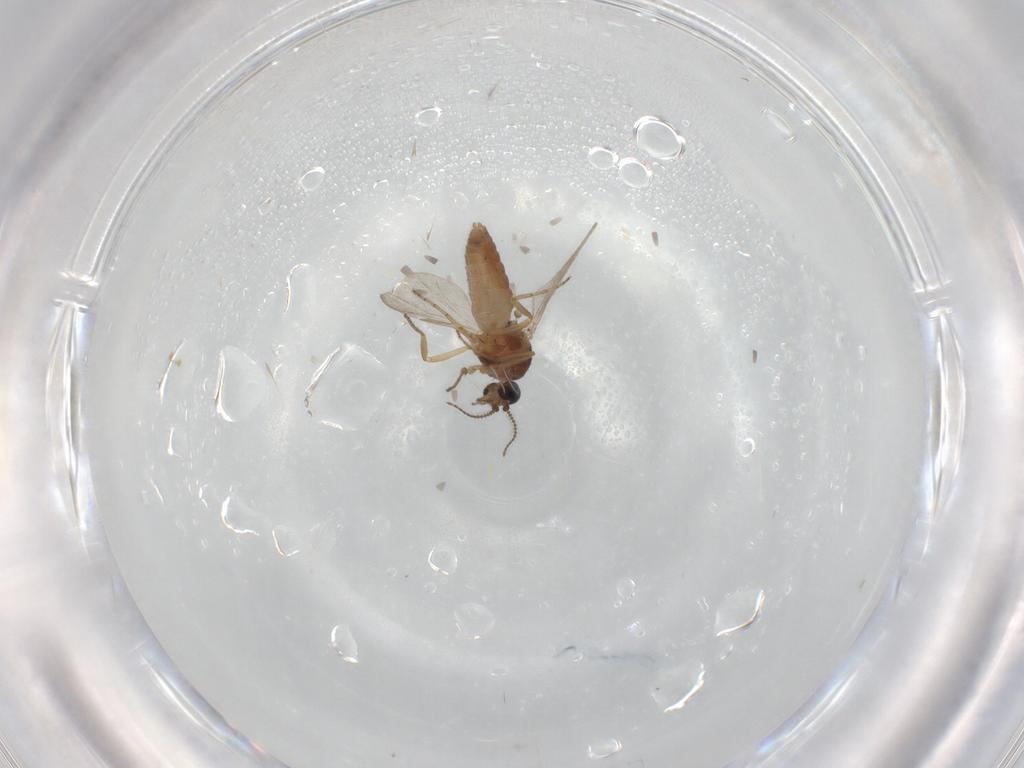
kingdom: Animalia
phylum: Arthropoda
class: Insecta
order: Diptera
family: Ceratopogonidae
